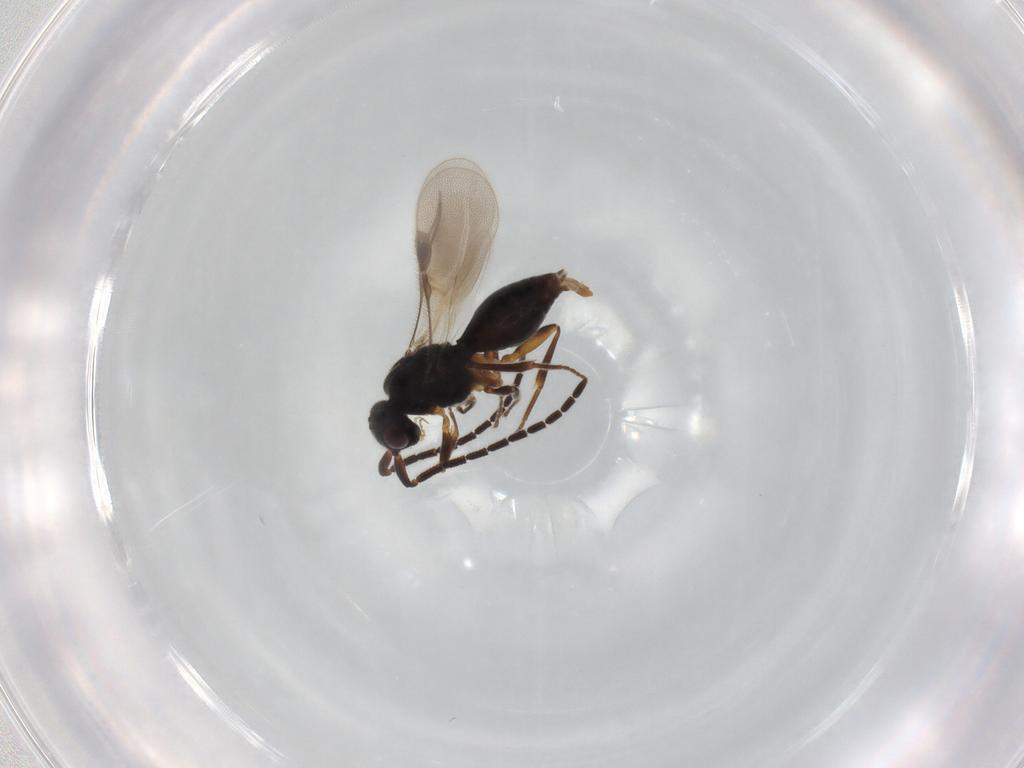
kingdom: Animalia
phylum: Arthropoda
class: Insecta
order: Hymenoptera
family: Megaspilidae
